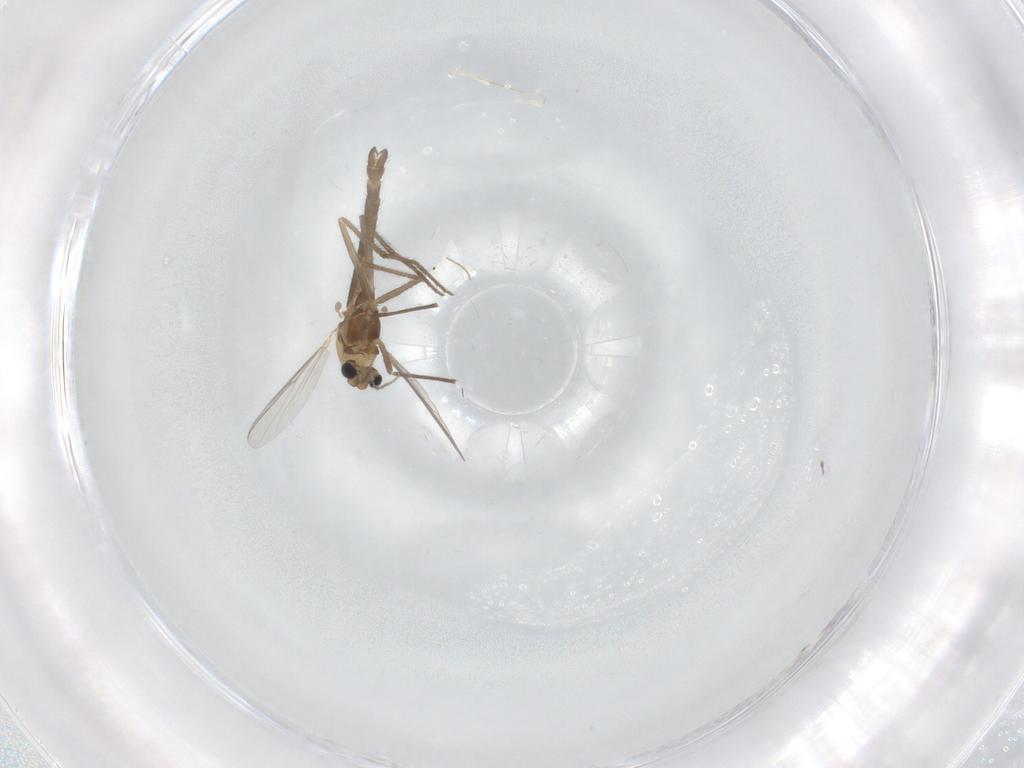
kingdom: Animalia
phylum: Arthropoda
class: Insecta
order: Diptera
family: Chironomidae
